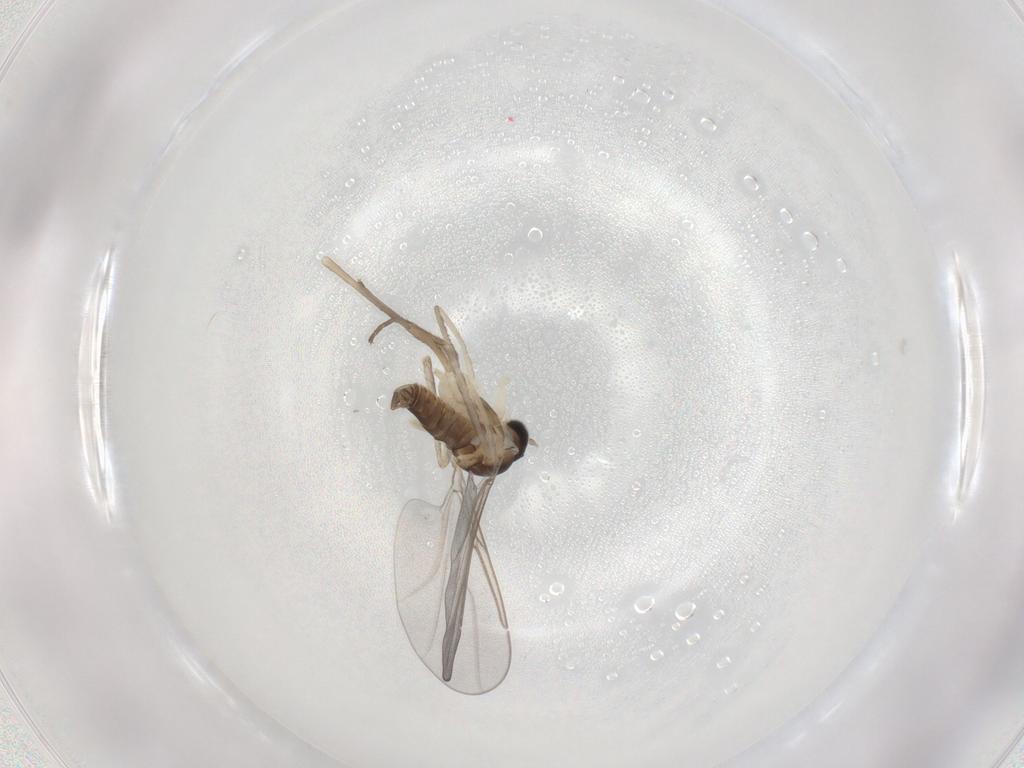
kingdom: Animalia
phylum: Arthropoda
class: Insecta
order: Diptera
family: Cecidomyiidae
